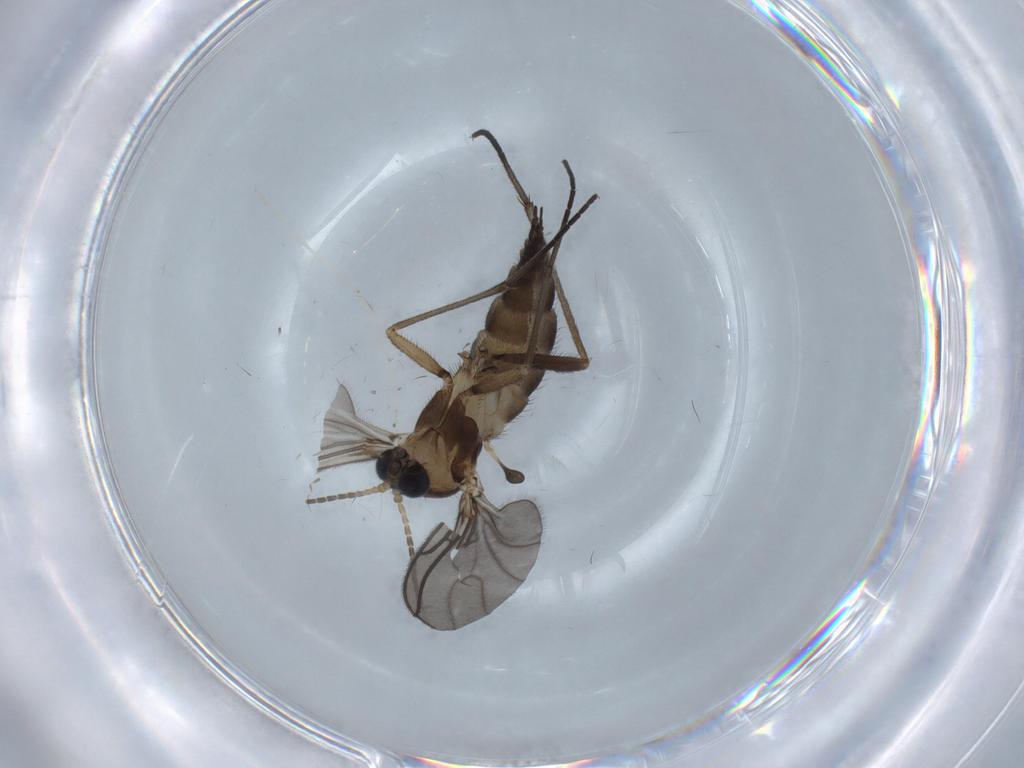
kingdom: Animalia
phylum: Arthropoda
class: Insecta
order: Diptera
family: Sciaridae
